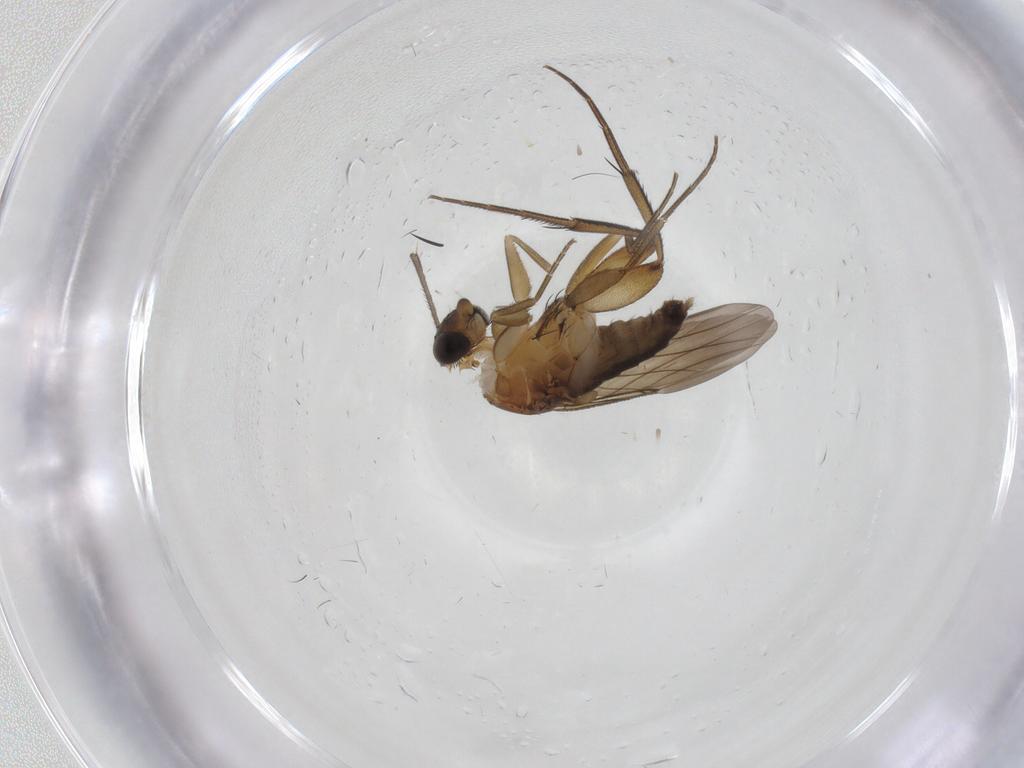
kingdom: Animalia
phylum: Arthropoda
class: Insecta
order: Diptera
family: Phoridae
